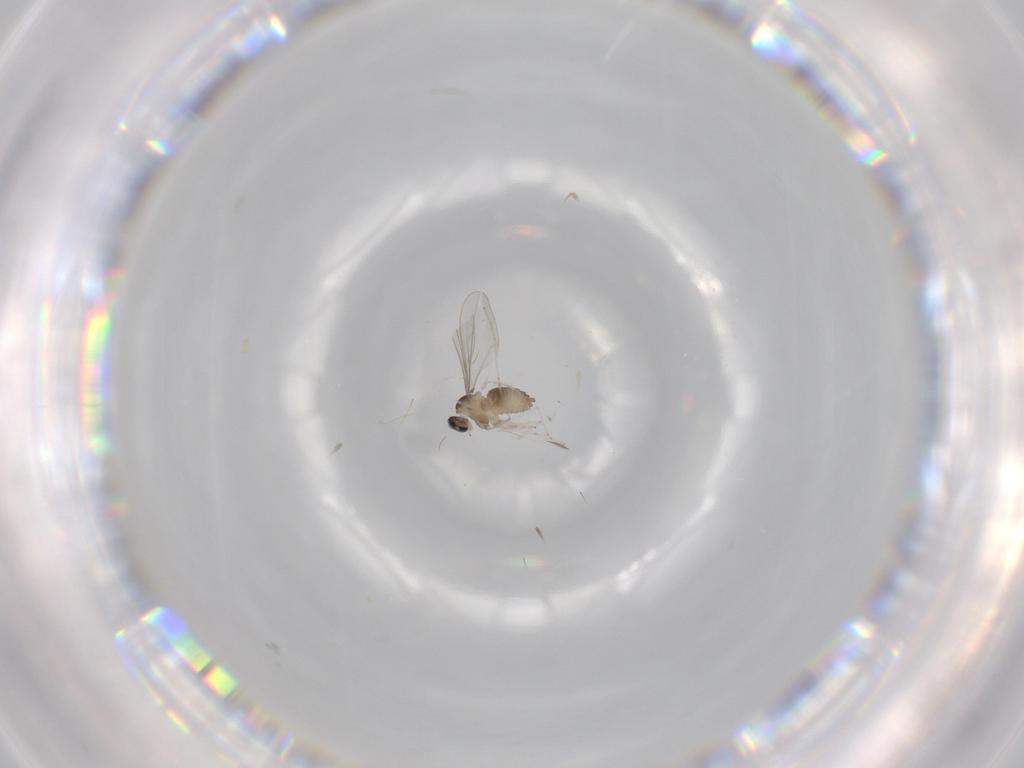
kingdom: Animalia
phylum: Arthropoda
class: Insecta
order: Diptera
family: Cecidomyiidae
